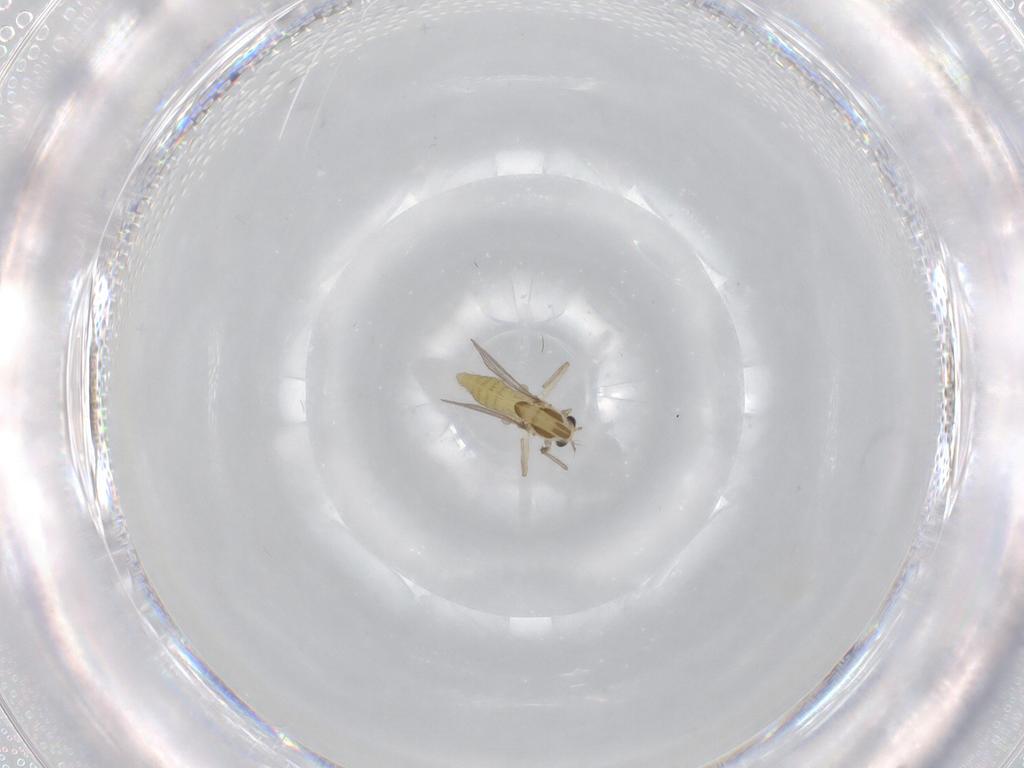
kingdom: Animalia
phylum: Arthropoda
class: Insecta
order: Diptera
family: Chironomidae
